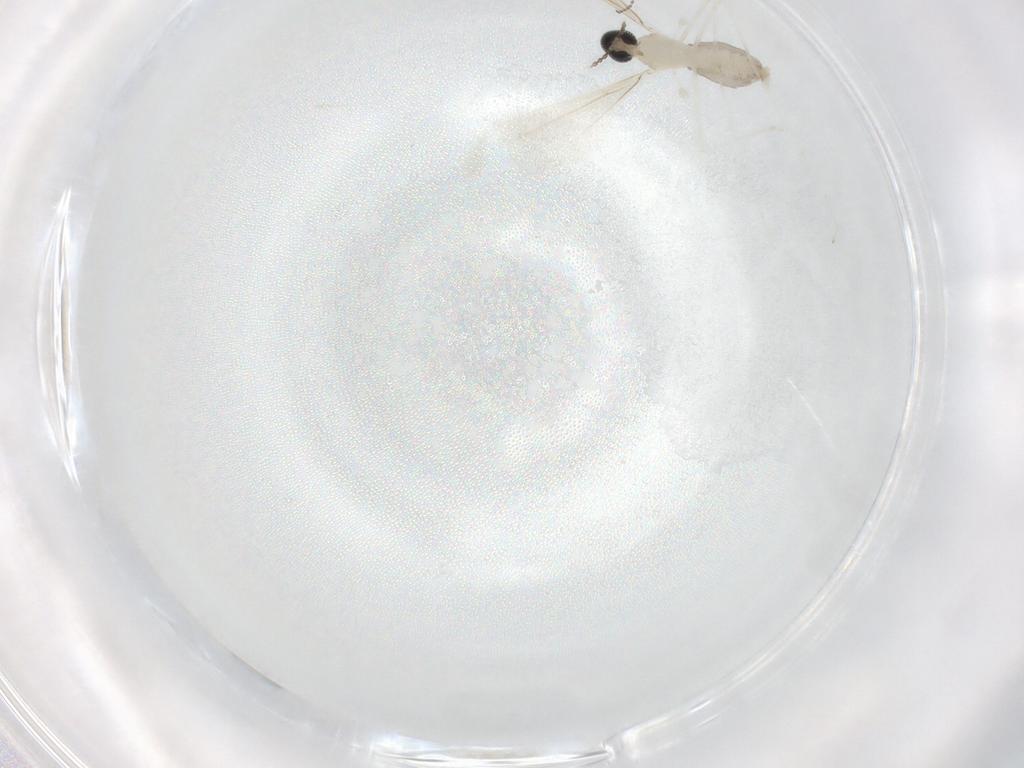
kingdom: Animalia
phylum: Arthropoda
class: Insecta
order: Diptera
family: Cecidomyiidae
